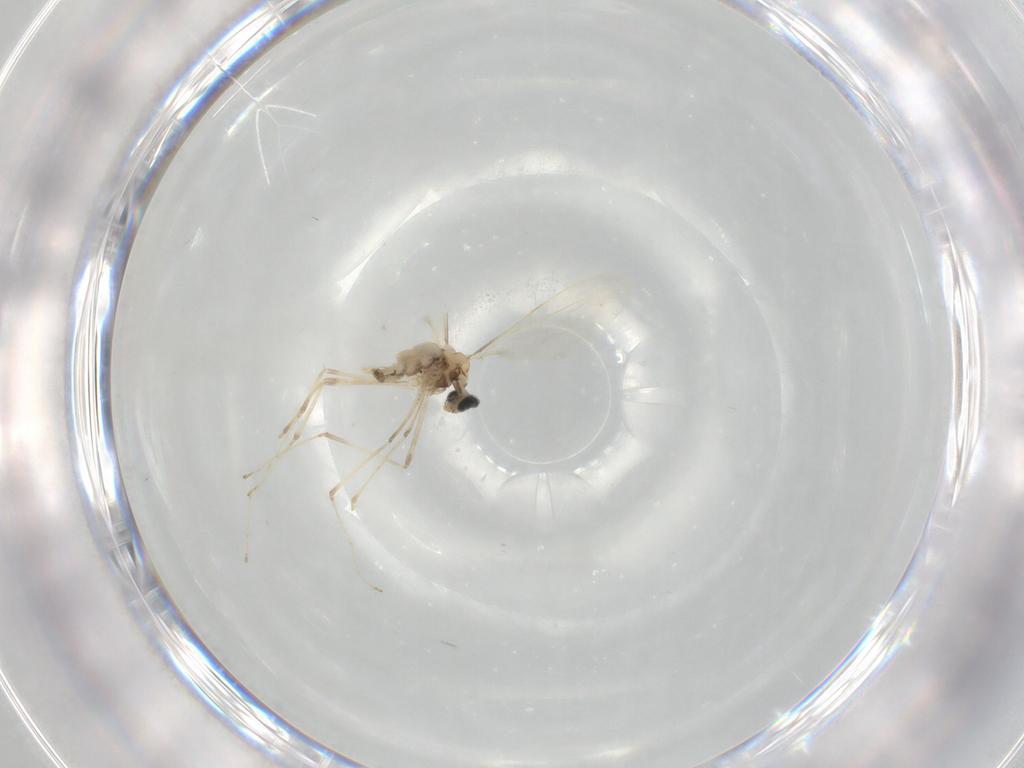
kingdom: Animalia
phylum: Arthropoda
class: Insecta
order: Diptera
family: Cecidomyiidae
